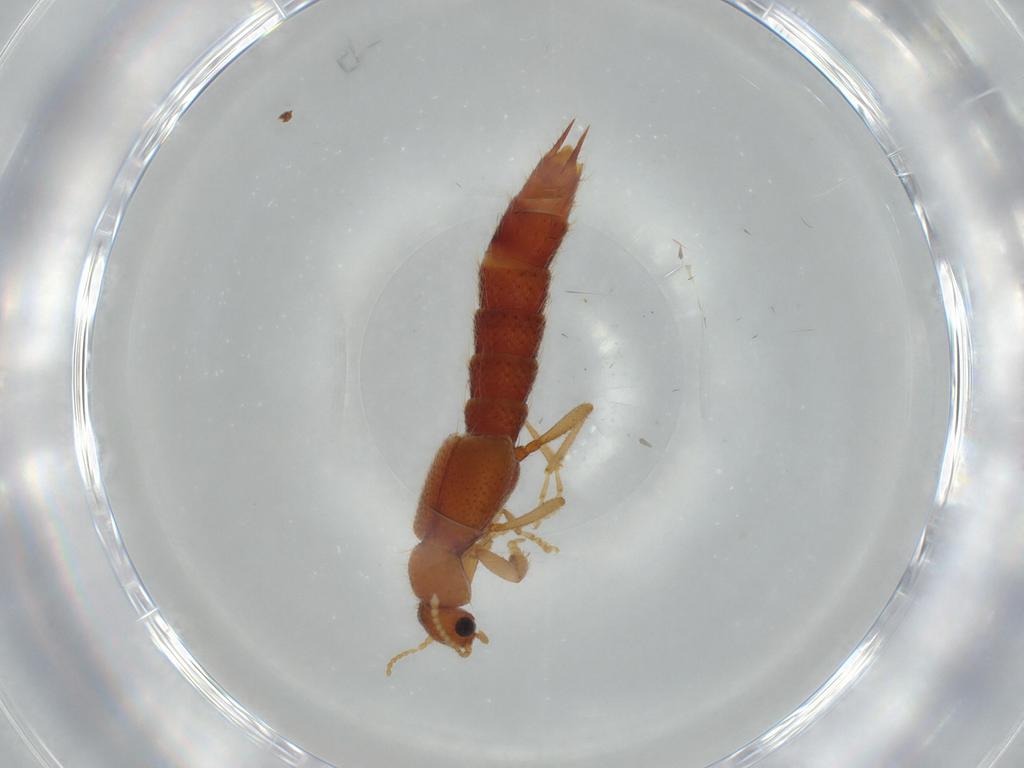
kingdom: Animalia
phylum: Arthropoda
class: Insecta
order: Coleoptera
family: Staphylinidae
